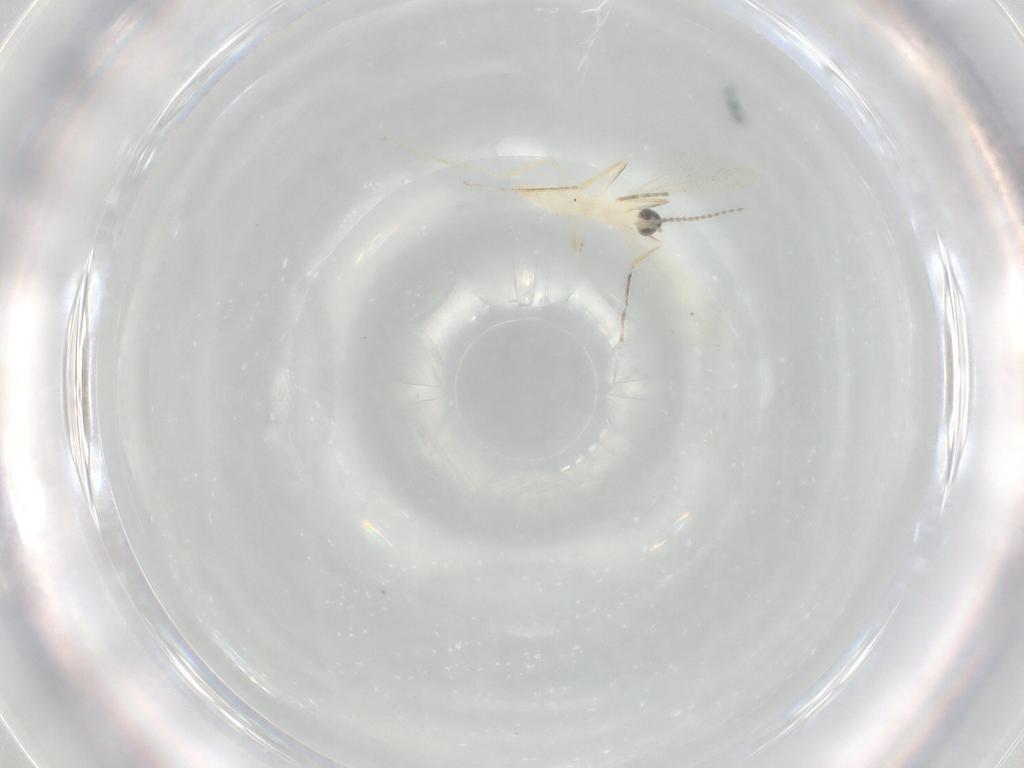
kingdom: Animalia
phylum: Arthropoda
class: Insecta
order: Diptera
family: Cecidomyiidae
